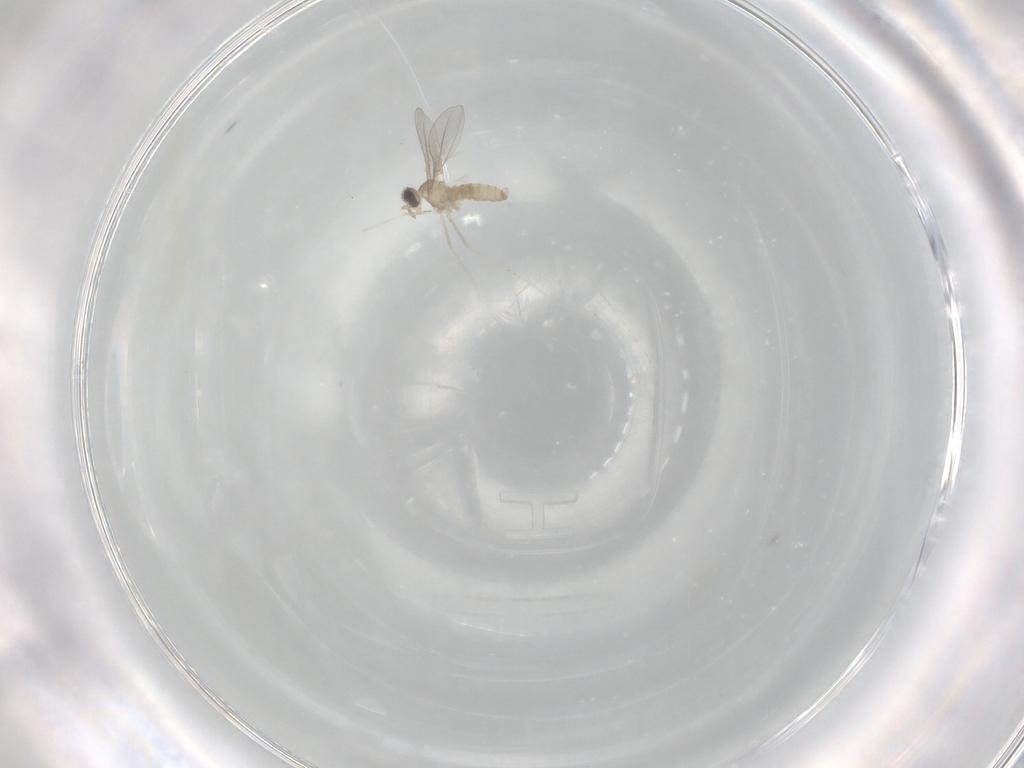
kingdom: Animalia
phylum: Arthropoda
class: Insecta
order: Diptera
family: Cecidomyiidae
